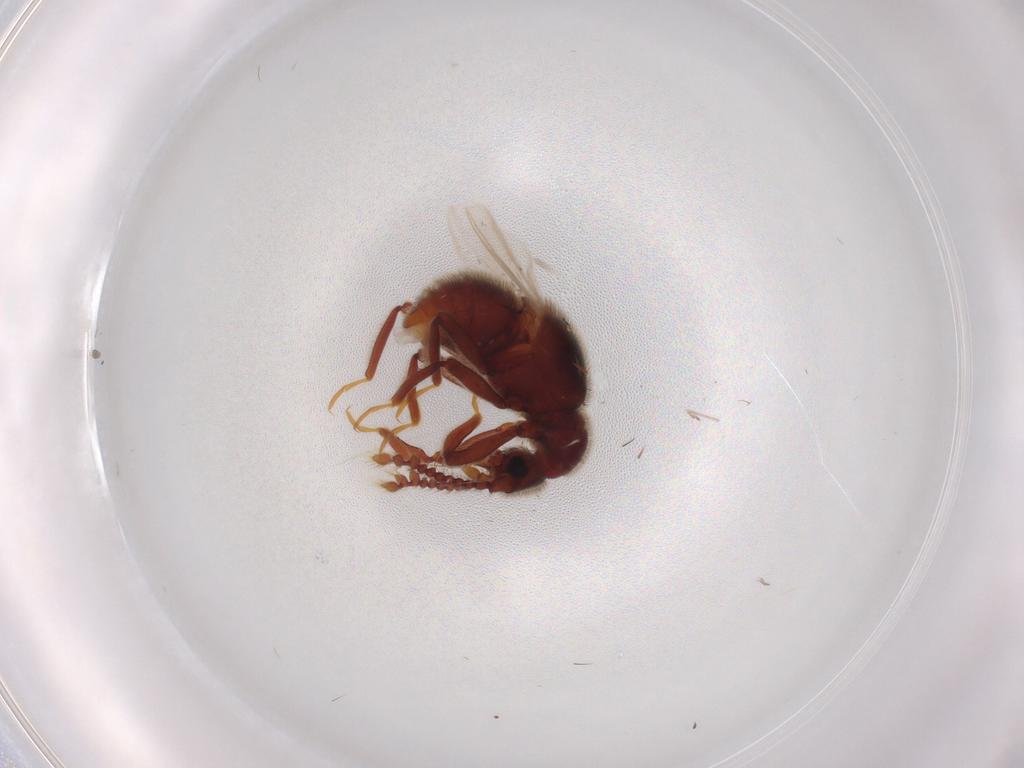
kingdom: Animalia
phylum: Arthropoda
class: Insecta
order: Coleoptera
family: Staphylinidae
